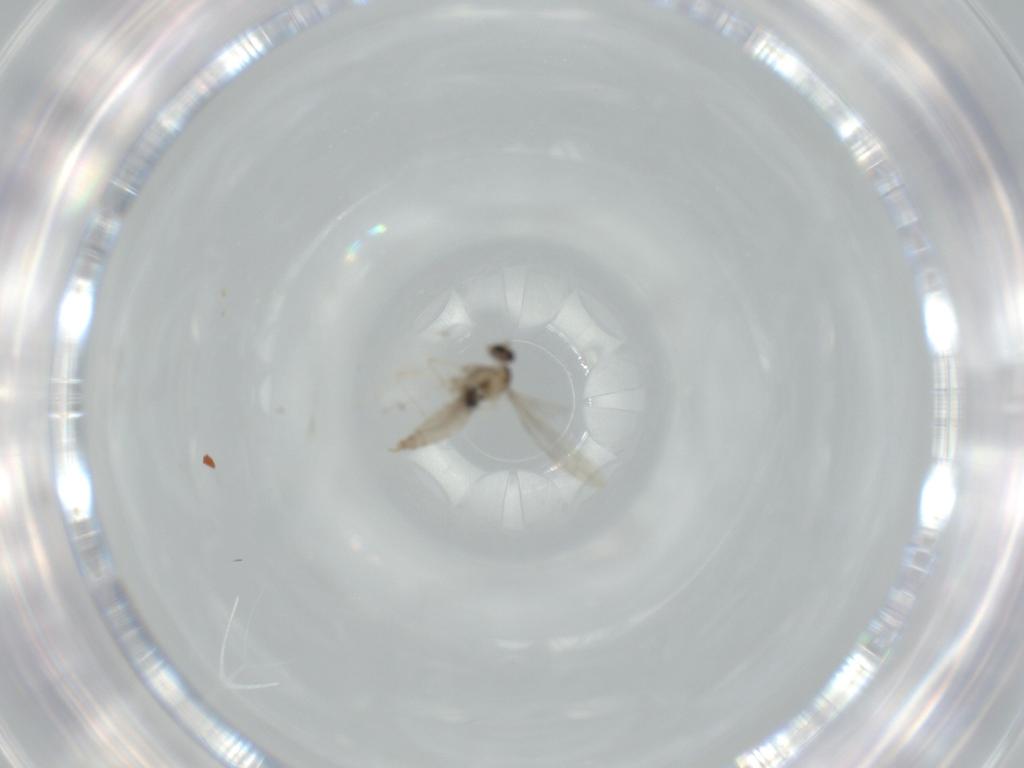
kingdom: Animalia
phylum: Arthropoda
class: Insecta
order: Diptera
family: Cecidomyiidae
